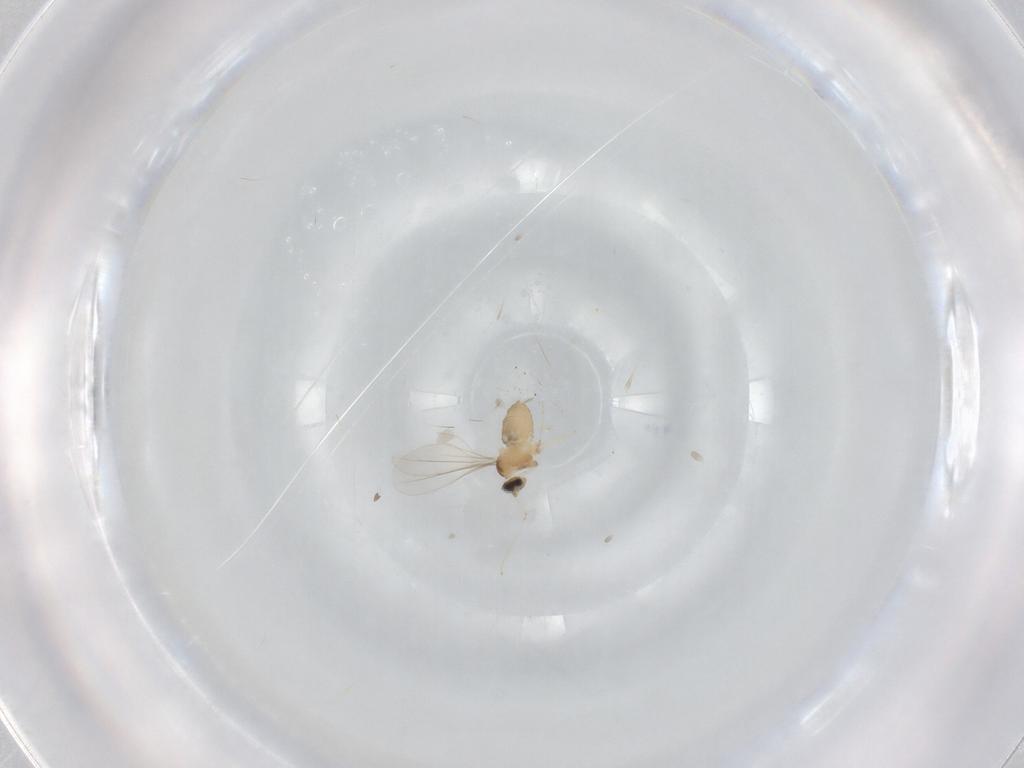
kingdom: Animalia
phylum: Arthropoda
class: Insecta
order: Diptera
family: Cecidomyiidae
